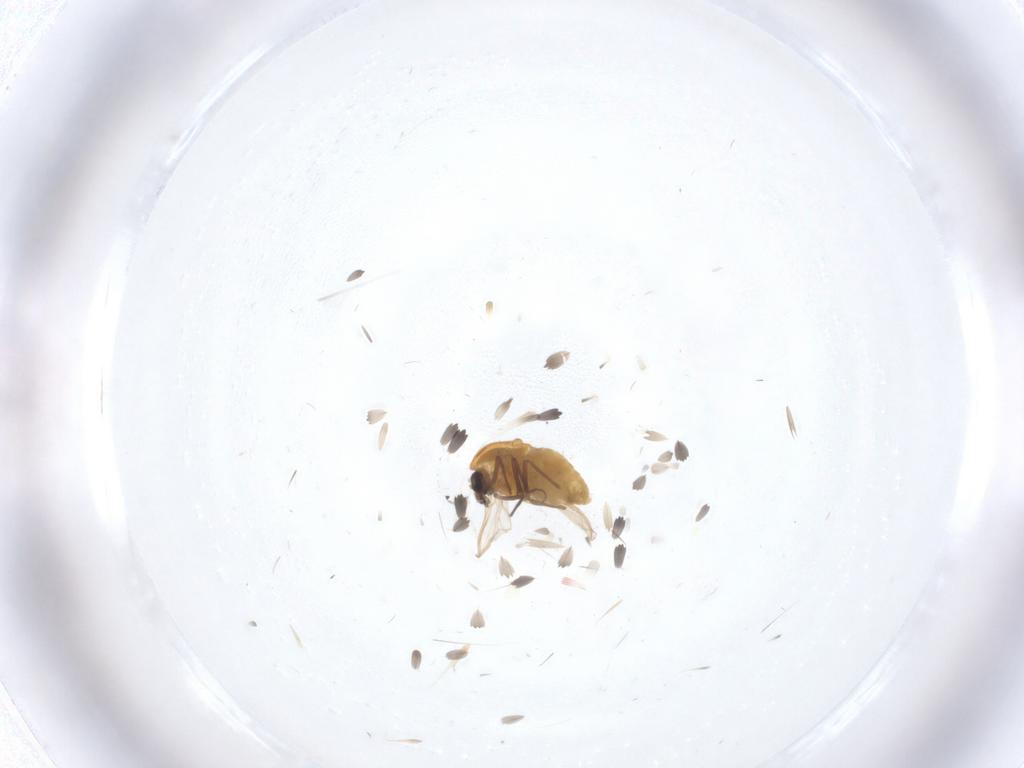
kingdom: Animalia
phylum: Arthropoda
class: Insecta
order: Diptera
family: Chironomidae
